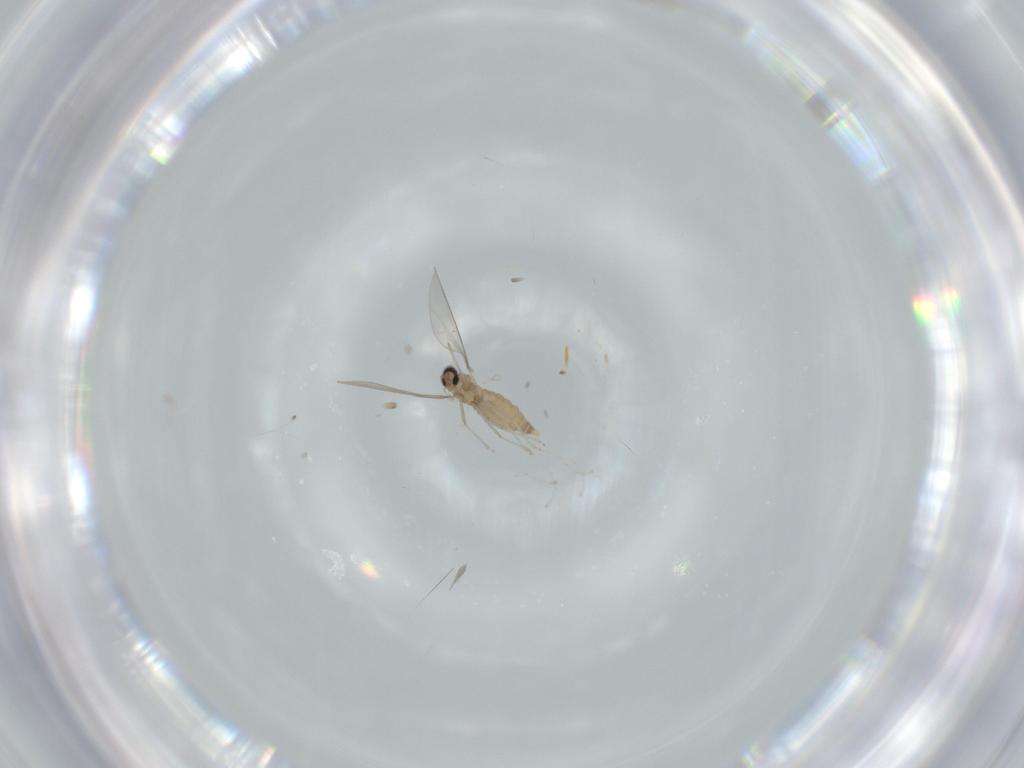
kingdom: Animalia
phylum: Arthropoda
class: Insecta
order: Diptera
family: Cecidomyiidae
